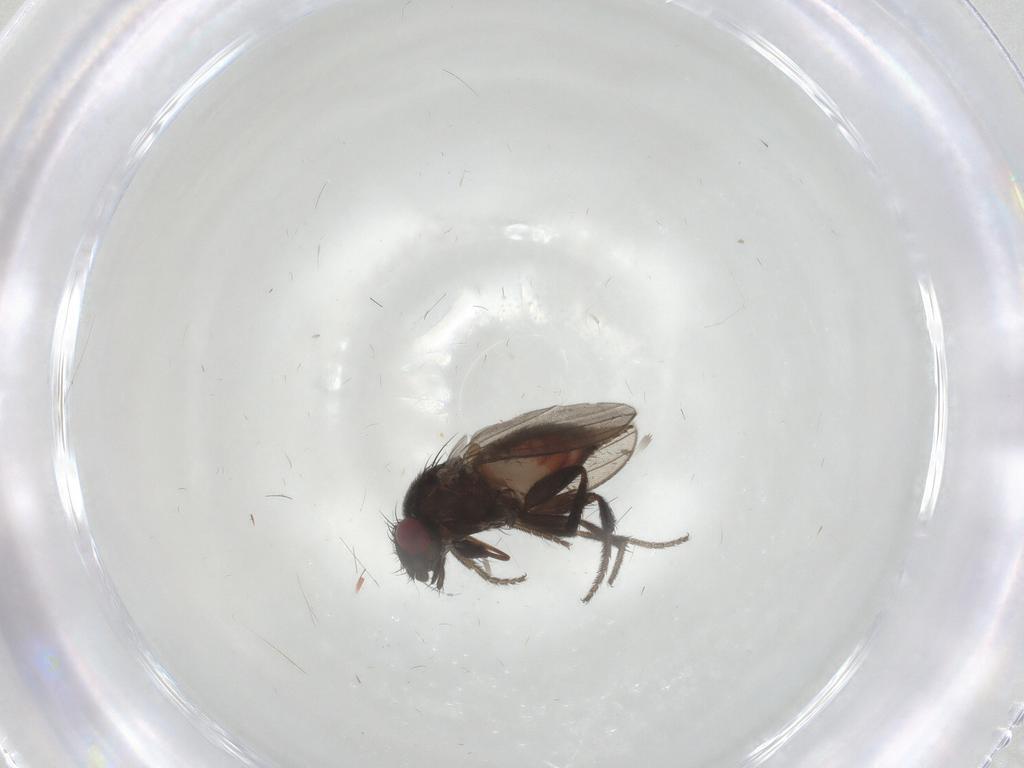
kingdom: Animalia
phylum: Arthropoda
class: Insecta
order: Diptera
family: Milichiidae
